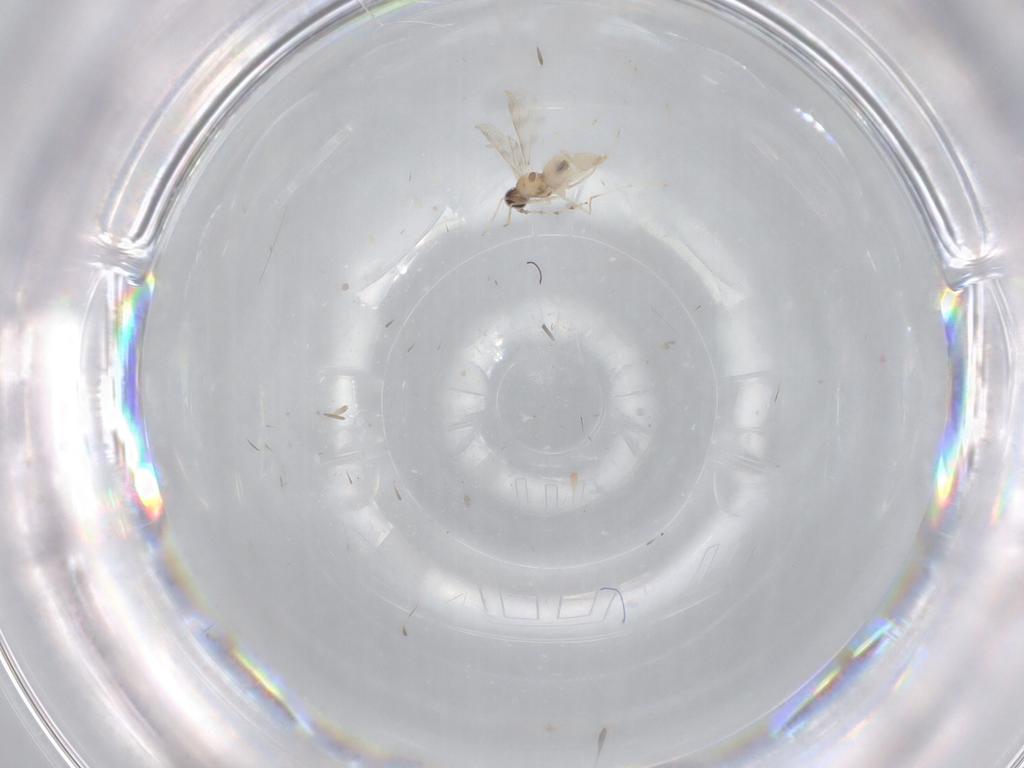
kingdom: Animalia
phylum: Arthropoda
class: Insecta
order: Diptera
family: Cecidomyiidae
